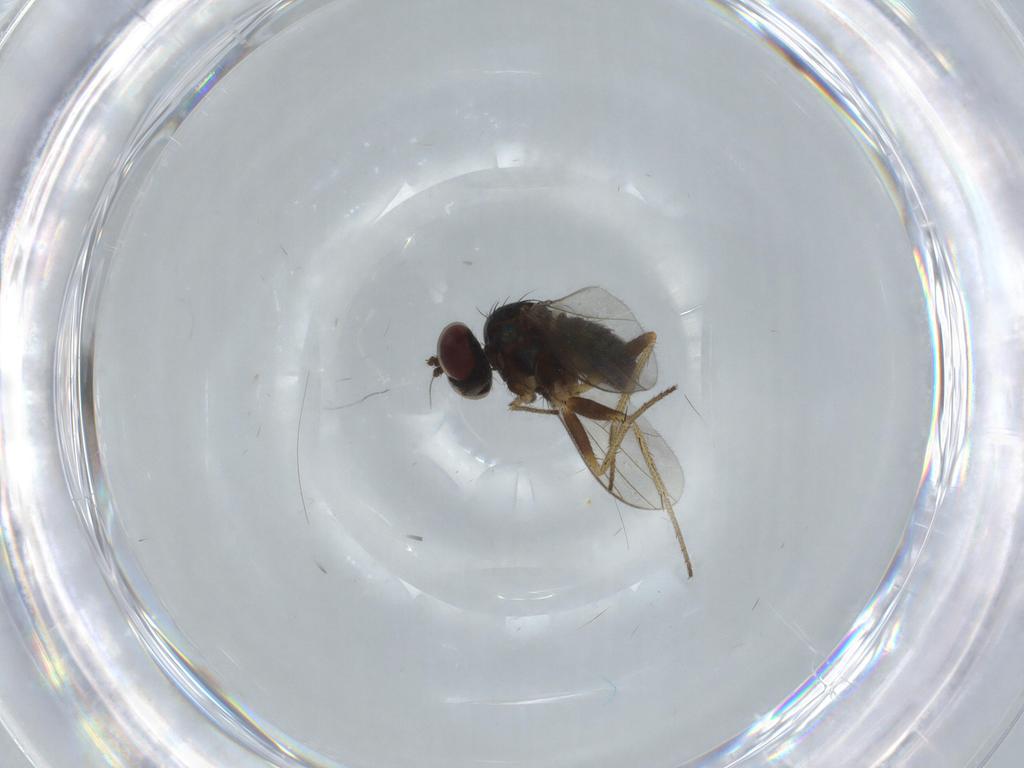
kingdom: Animalia
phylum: Arthropoda
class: Insecta
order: Diptera
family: Dolichopodidae
